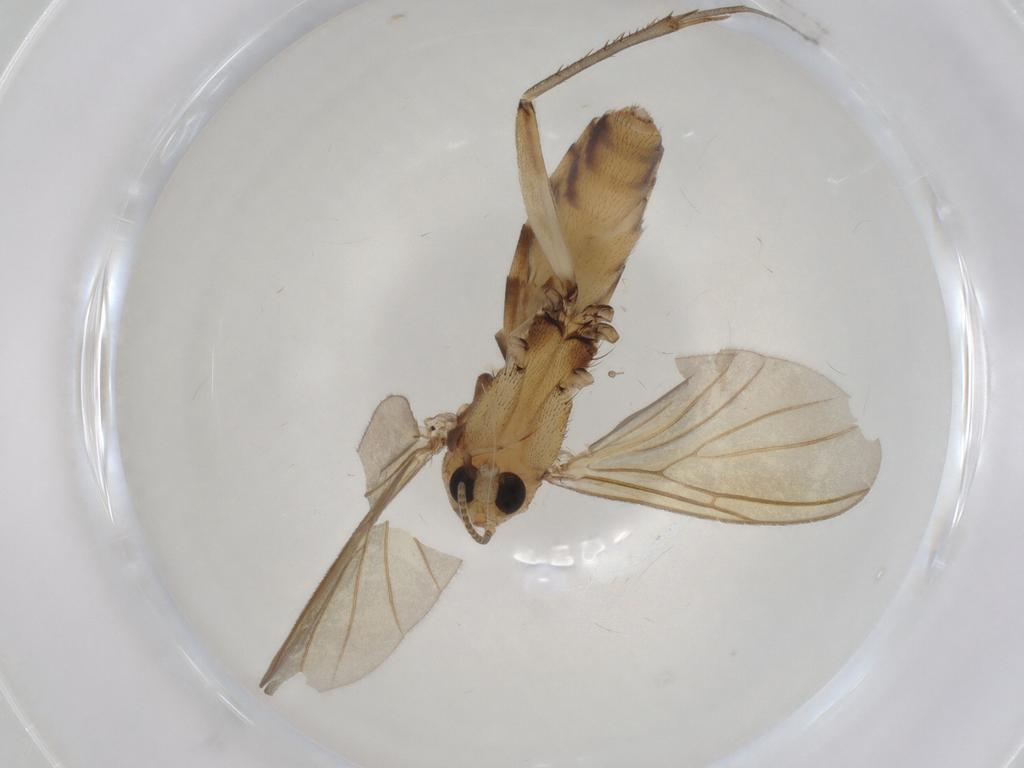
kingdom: Animalia
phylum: Arthropoda
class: Insecta
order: Diptera
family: Mycetophilidae
